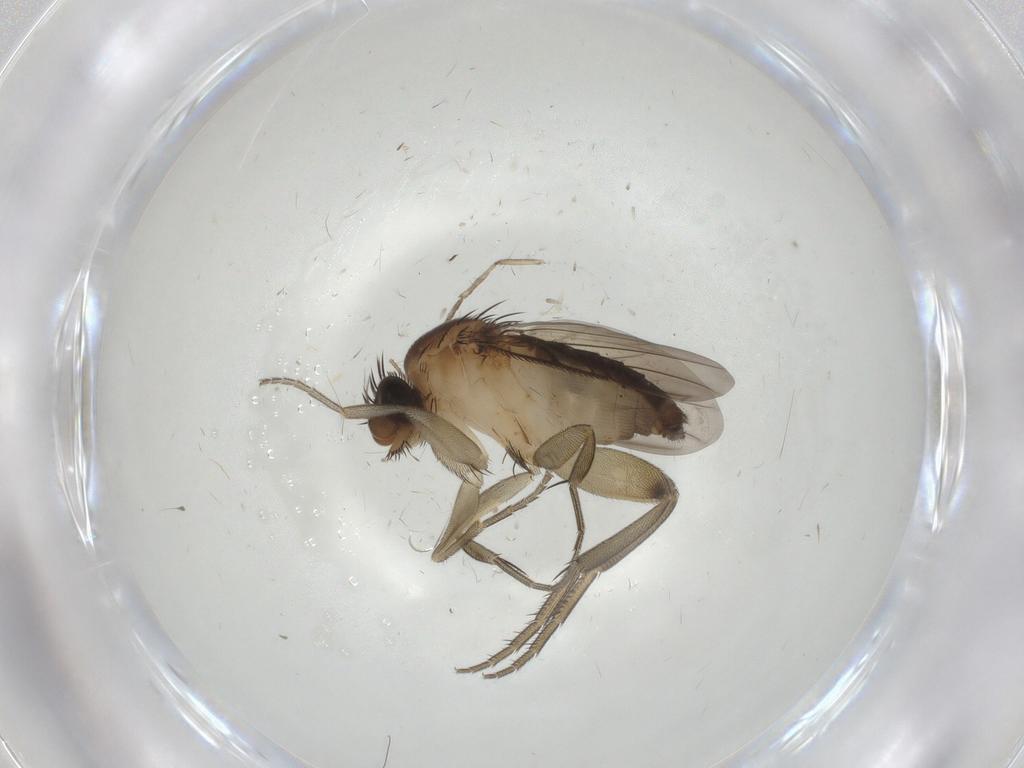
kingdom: Animalia
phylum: Arthropoda
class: Insecta
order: Diptera
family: Phoridae
